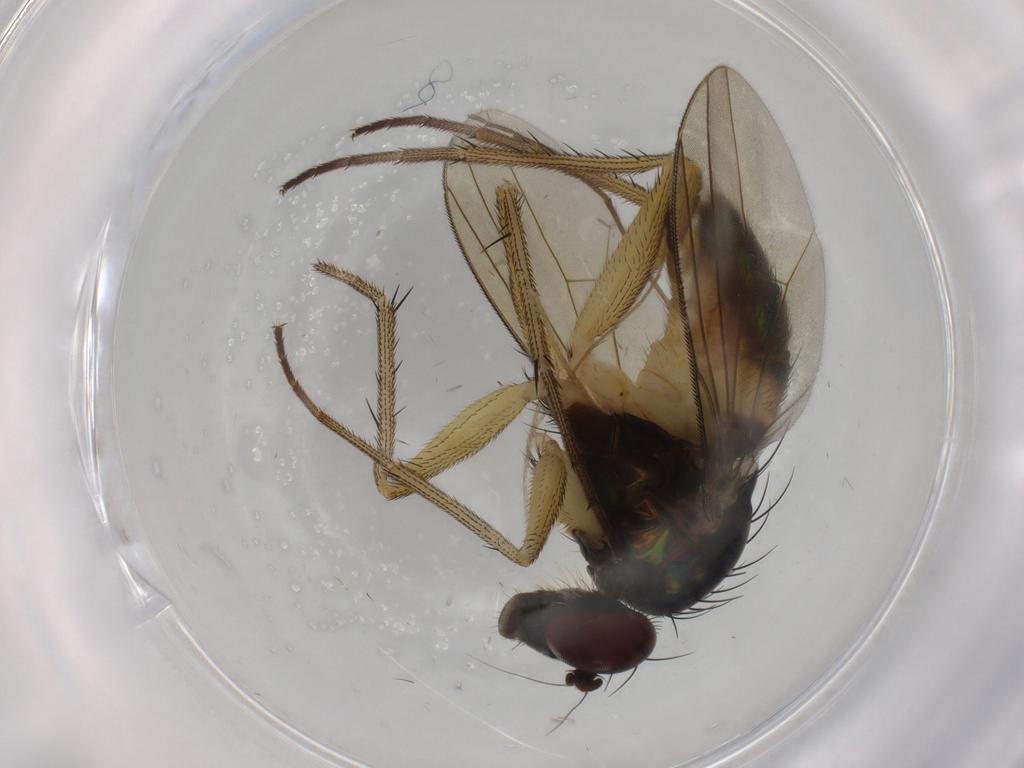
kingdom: Animalia
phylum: Arthropoda
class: Insecta
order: Diptera
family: Dolichopodidae
